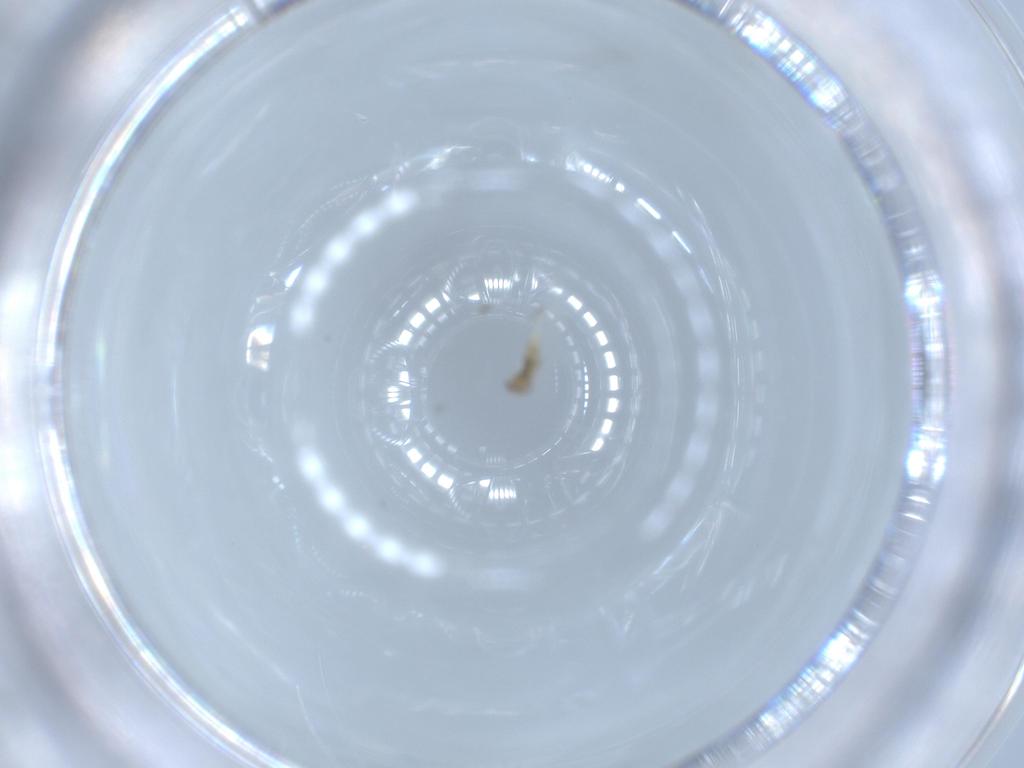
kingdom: Animalia
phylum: Arthropoda
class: Collembola
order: Entomobryomorpha
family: Entomobryidae
